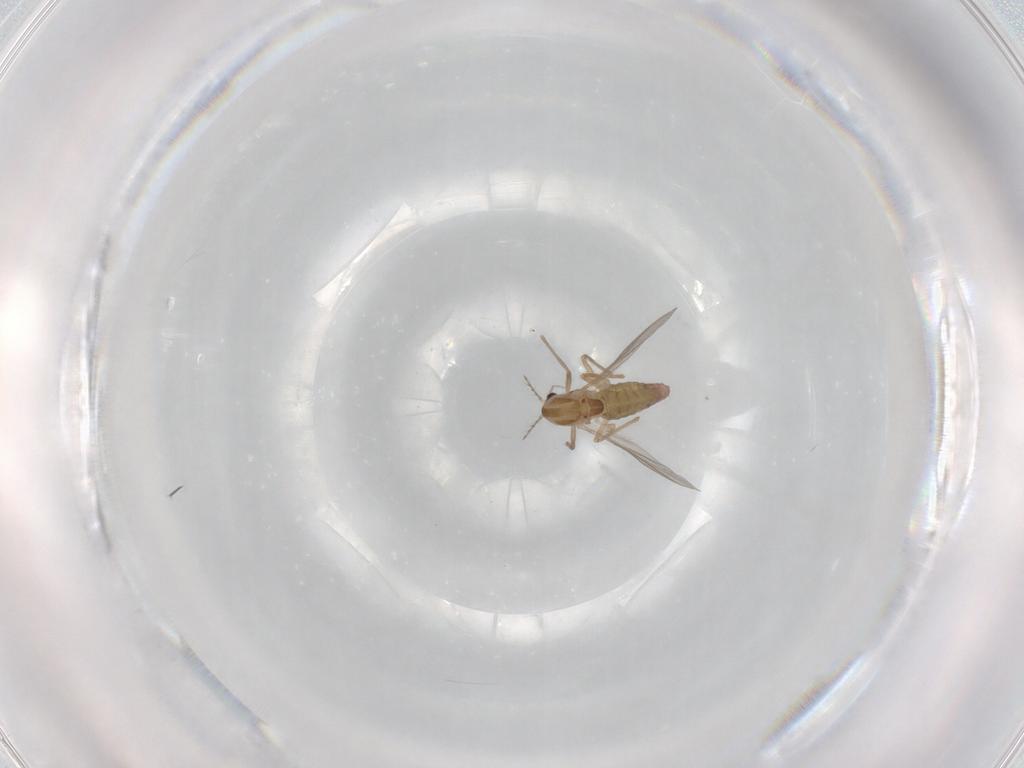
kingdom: Animalia
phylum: Arthropoda
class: Insecta
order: Diptera
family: Chironomidae
